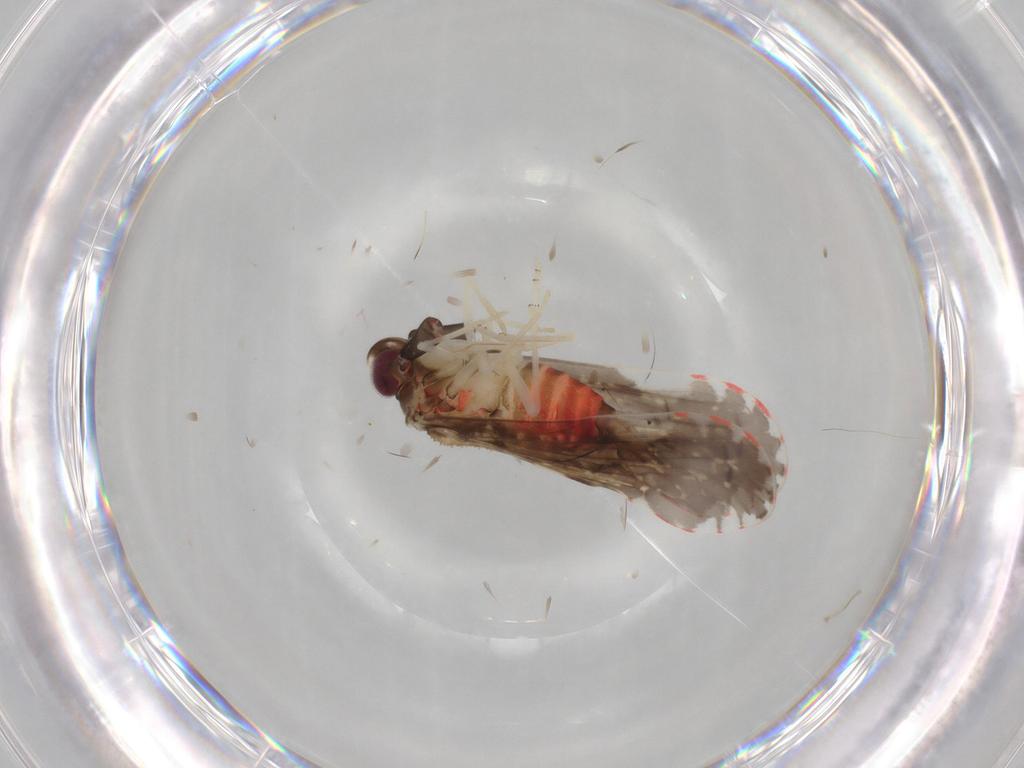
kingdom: Animalia
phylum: Arthropoda
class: Insecta
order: Hemiptera
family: Derbidae
